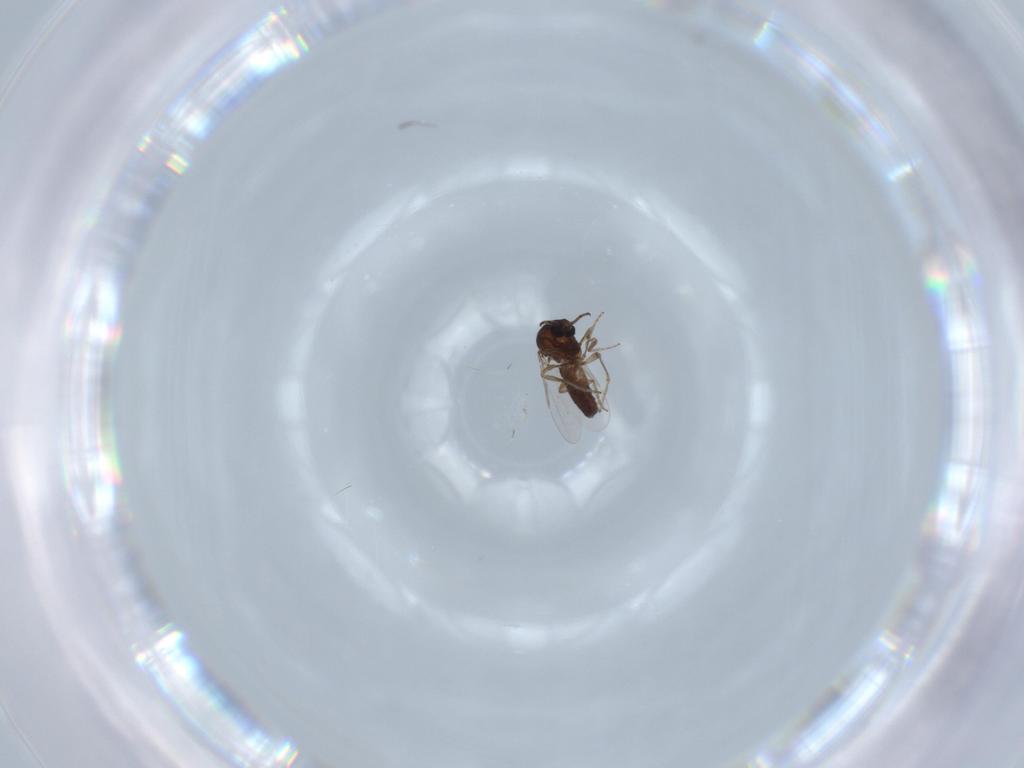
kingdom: Animalia
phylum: Arthropoda
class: Insecta
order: Diptera
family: Ceratopogonidae
